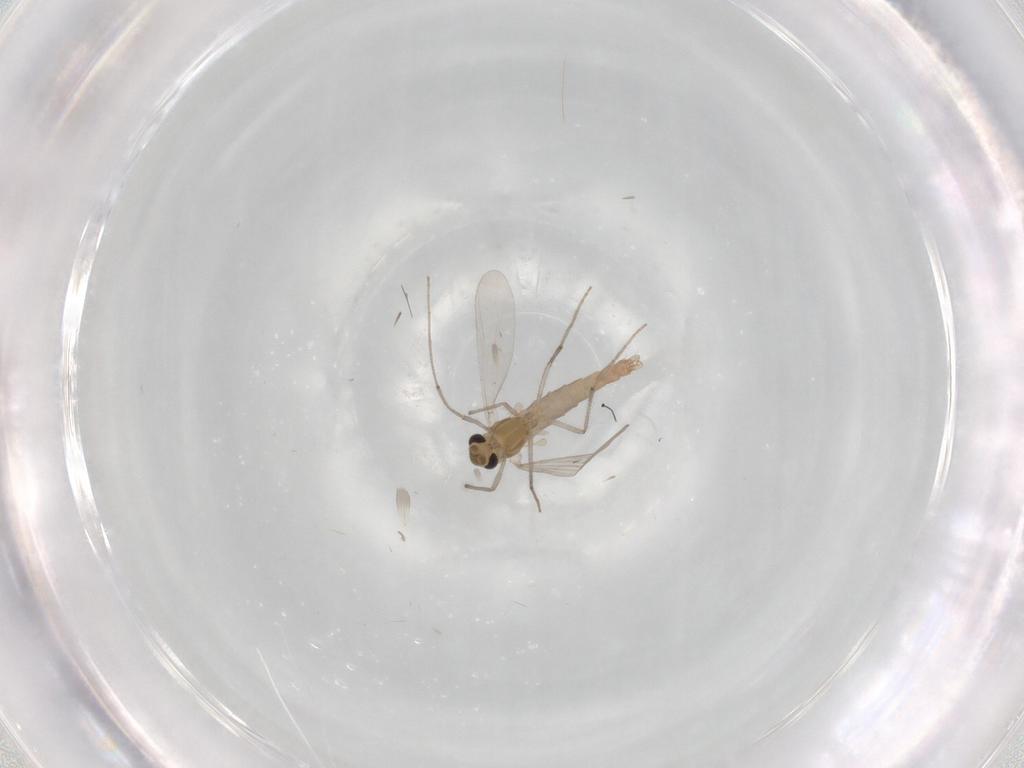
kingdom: Animalia
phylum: Arthropoda
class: Insecta
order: Diptera
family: Chironomidae
